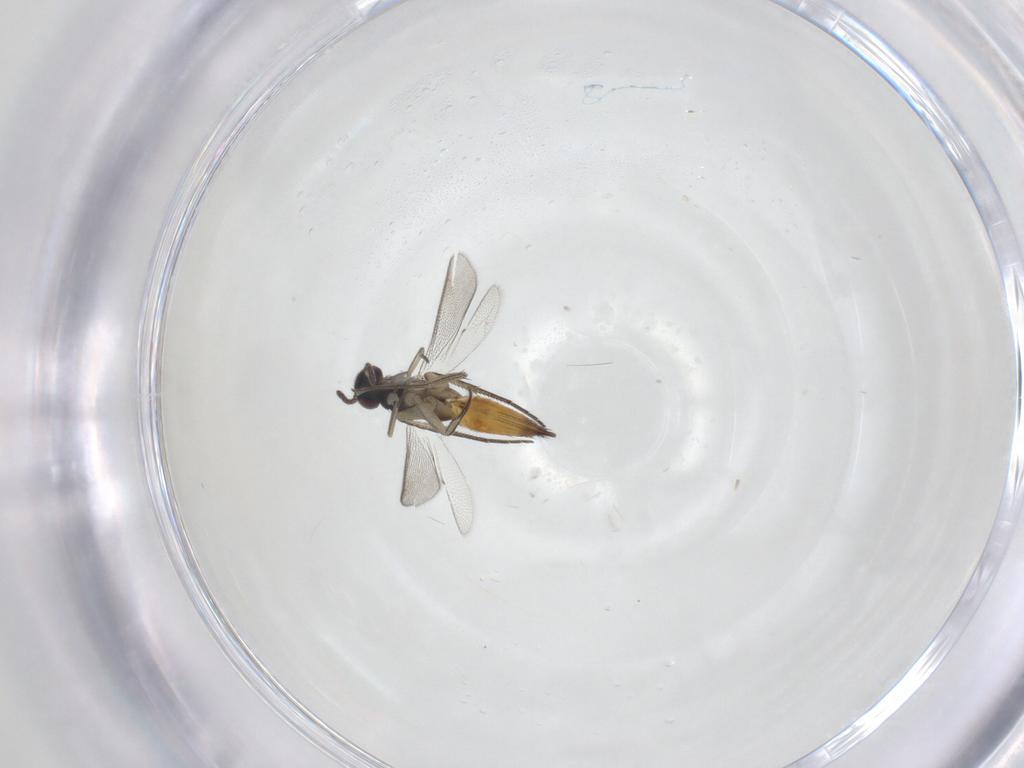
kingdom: Animalia
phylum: Arthropoda
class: Insecta
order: Hymenoptera
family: Eulophidae
